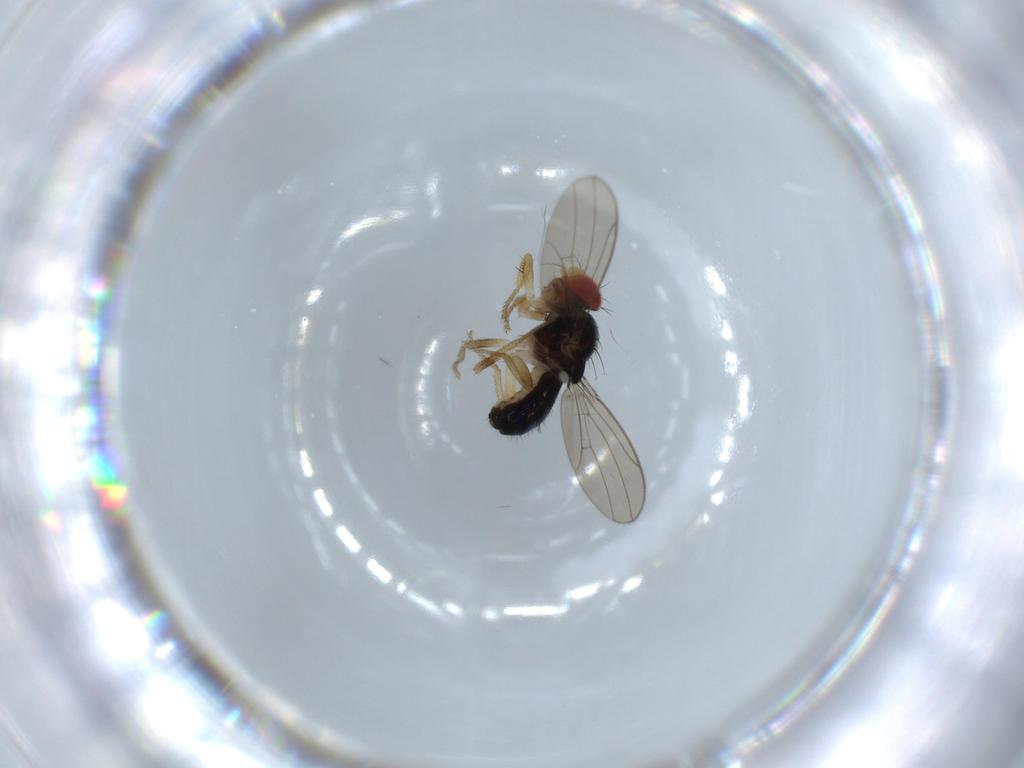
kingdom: Animalia
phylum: Arthropoda
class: Insecta
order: Diptera
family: Drosophilidae
